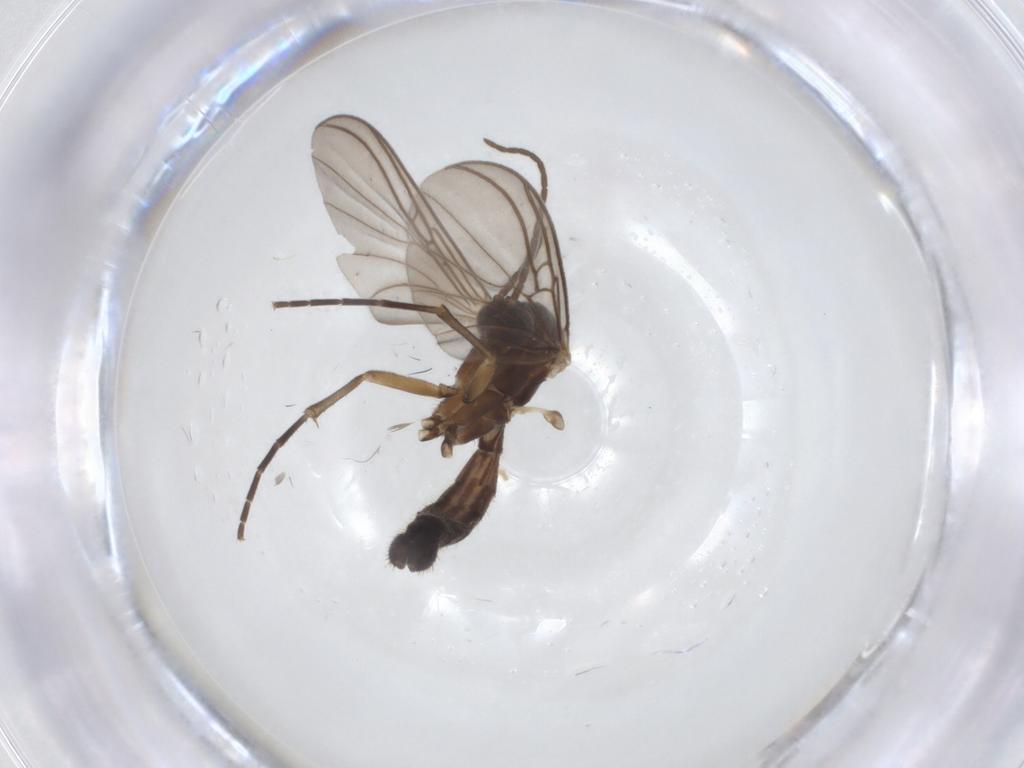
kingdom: Animalia
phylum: Arthropoda
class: Insecta
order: Diptera
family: Mycetophilidae
